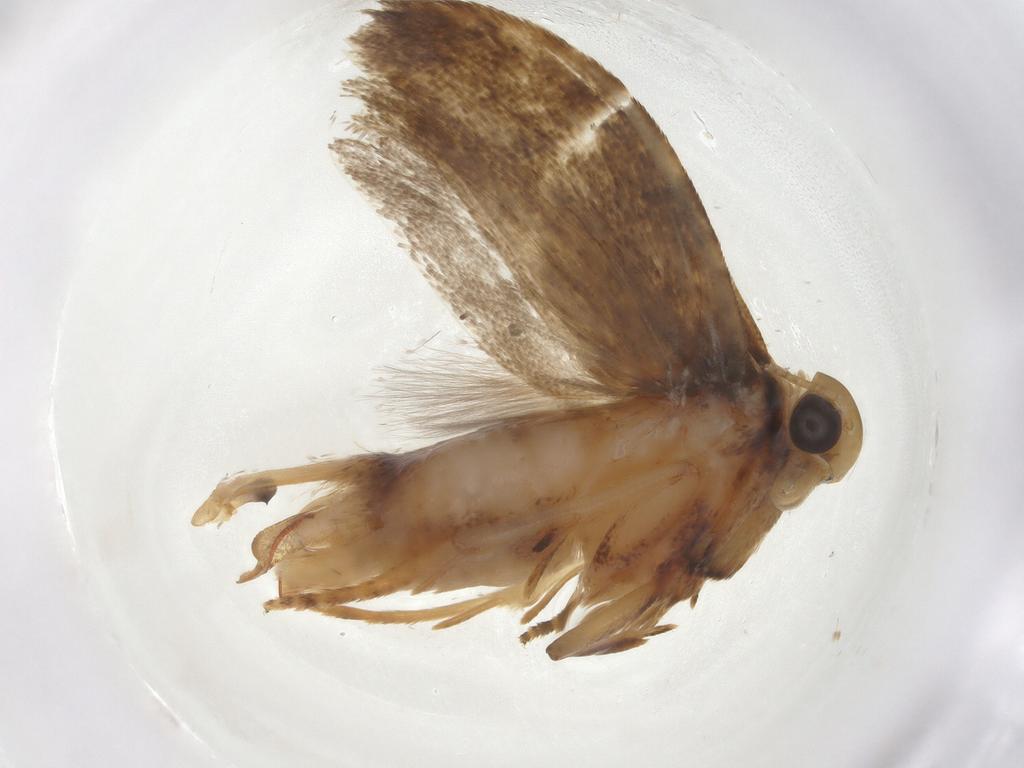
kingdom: Animalia
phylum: Arthropoda
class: Insecta
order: Lepidoptera
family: Gelechiidae
